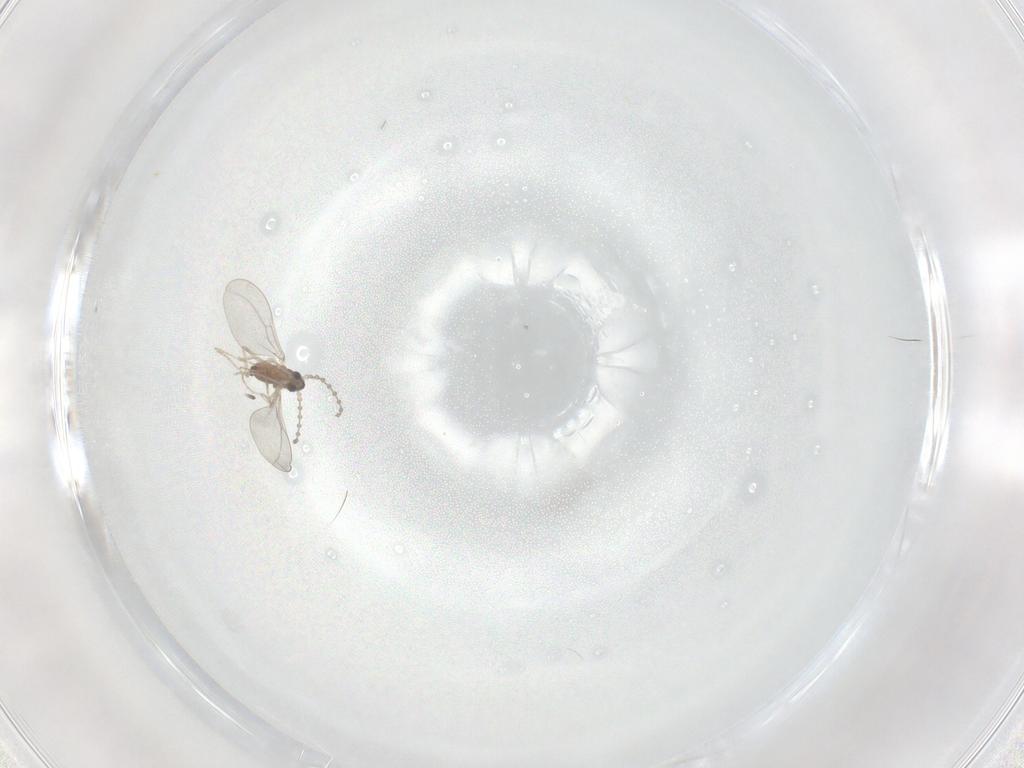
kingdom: Animalia
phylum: Arthropoda
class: Insecta
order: Diptera
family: Cecidomyiidae
